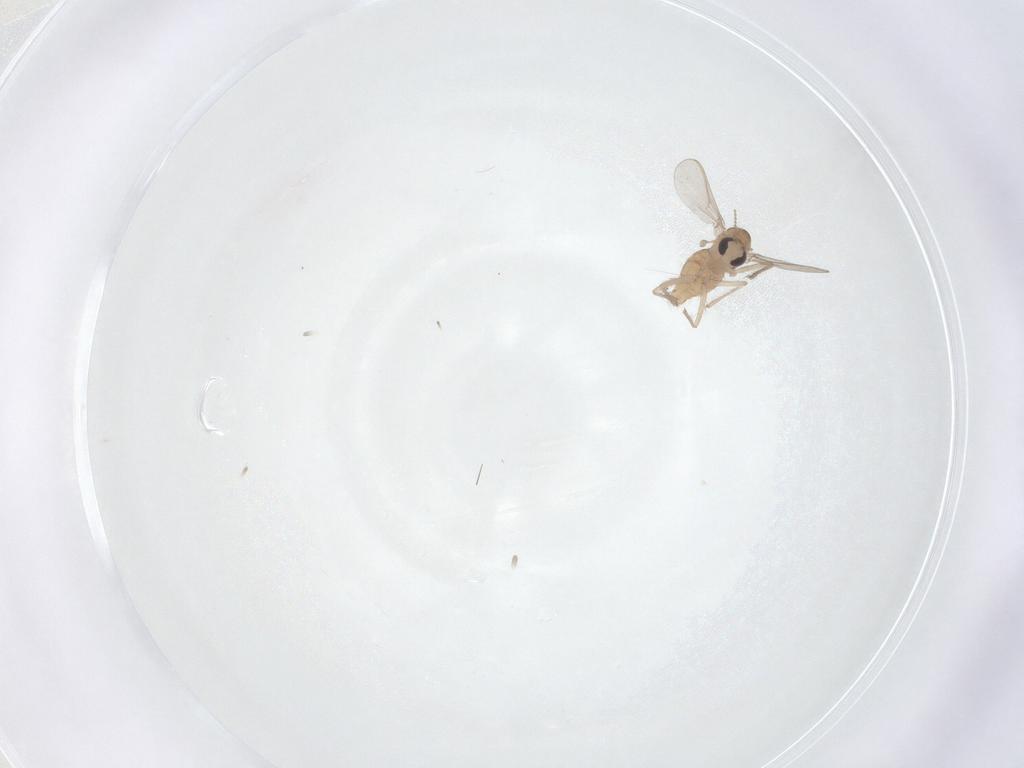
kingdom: Animalia
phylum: Arthropoda
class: Insecta
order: Diptera
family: Chironomidae
